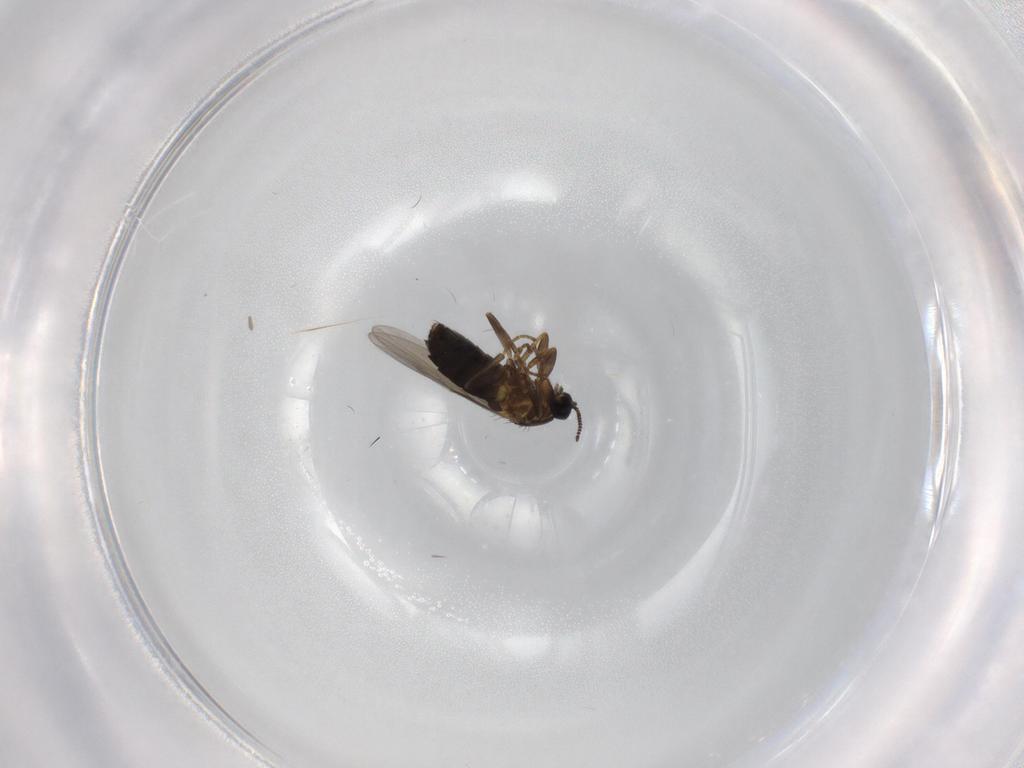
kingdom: Animalia
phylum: Arthropoda
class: Insecta
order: Diptera
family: Scatopsidae
